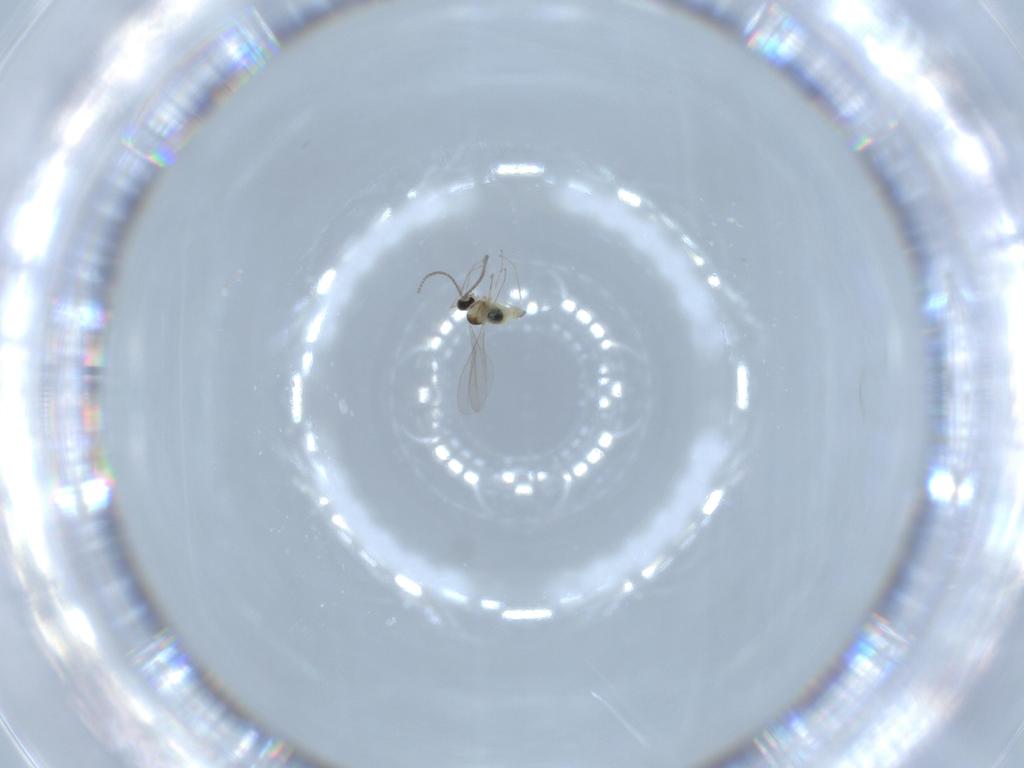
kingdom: Animalia
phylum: Arthropoda
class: Insecta
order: Diptera
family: Cecidomyiidae
